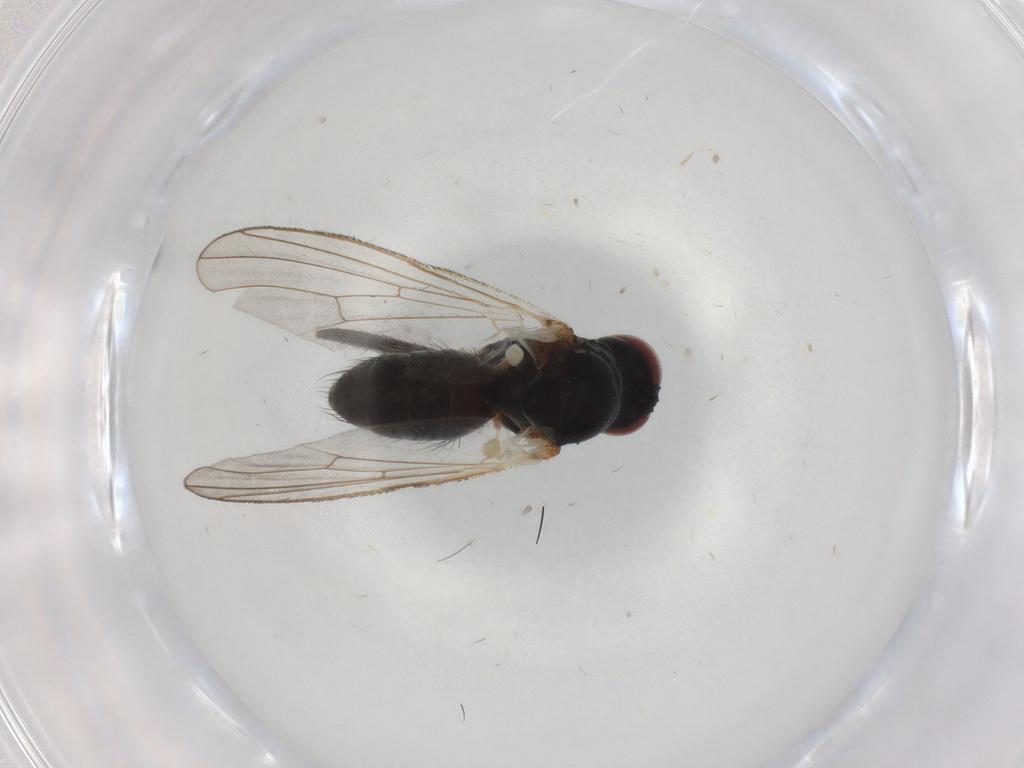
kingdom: Animalia
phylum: Arthropoda
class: Insecta
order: Diptera
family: Muscidae
